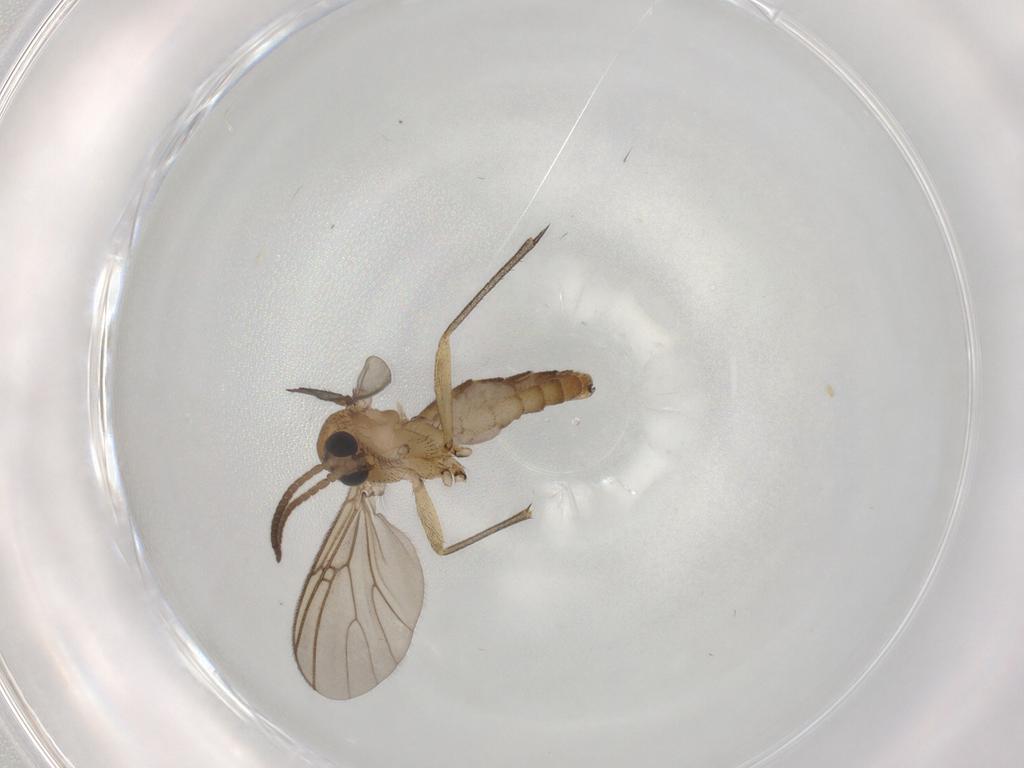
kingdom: Animalia
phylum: Arthropoda
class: Insecta
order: Diptera
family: Cecidomyiidae
